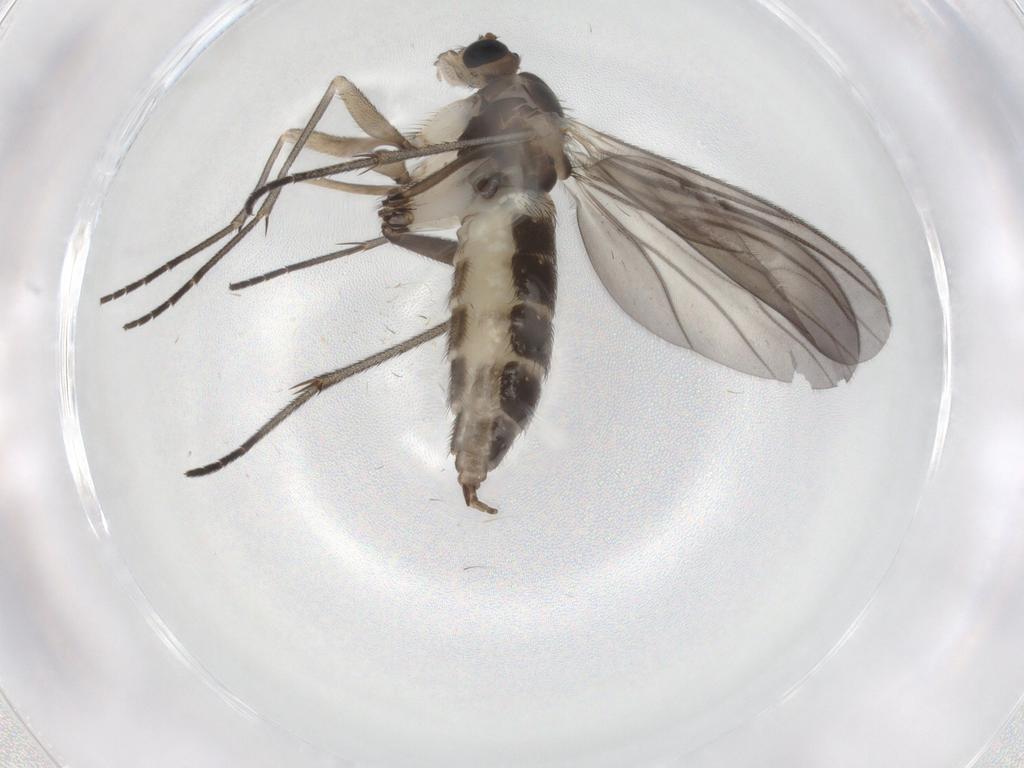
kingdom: Animalia
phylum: Arthropoda
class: Insecta
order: Diptera
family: Sciaridae
